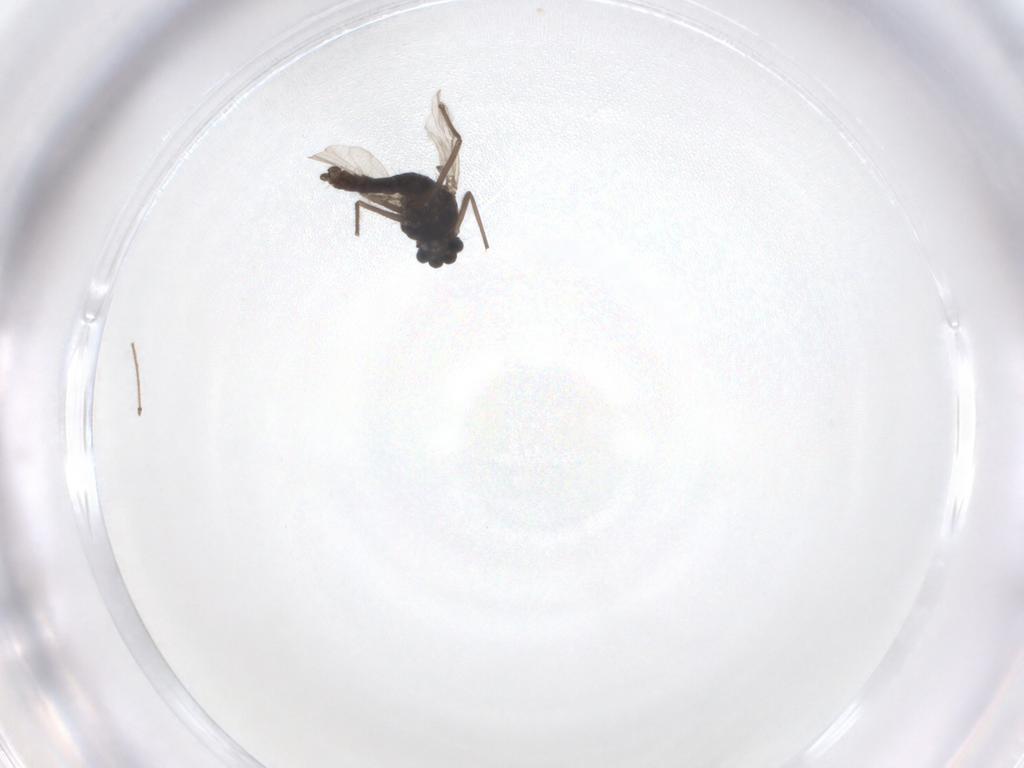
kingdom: Animalia
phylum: Arthropoda
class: Insecta
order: Diptera
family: Chironomidae
